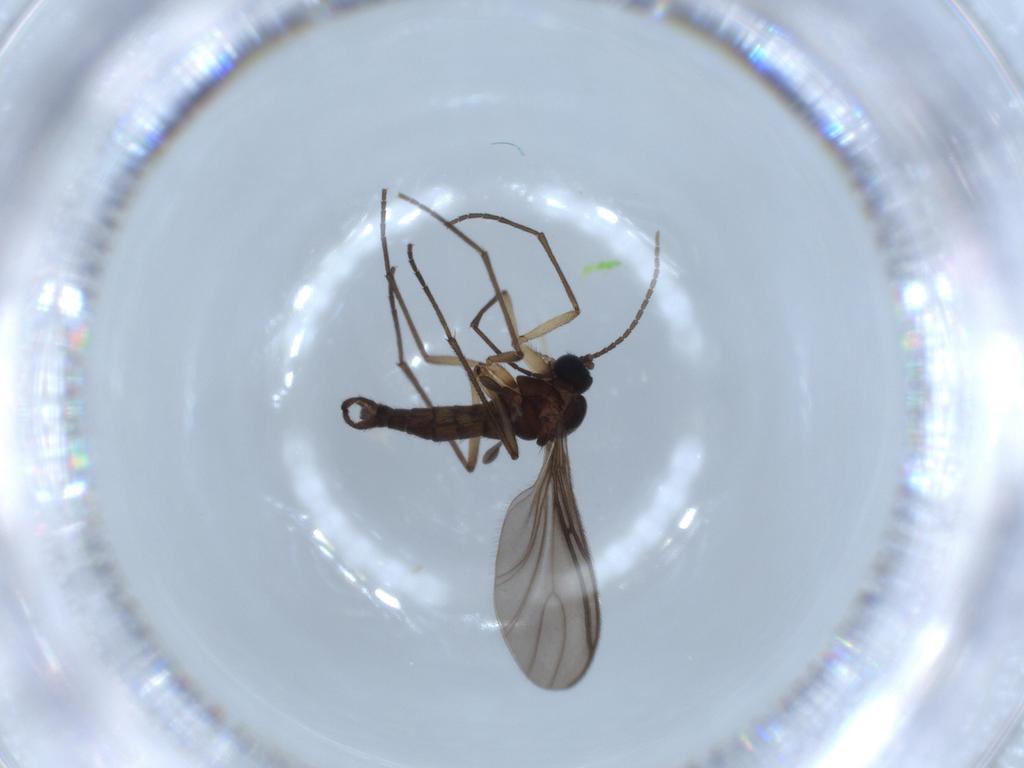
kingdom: Animalia
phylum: Arthropoda
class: Insecta
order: Diptera
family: Sciaridae
